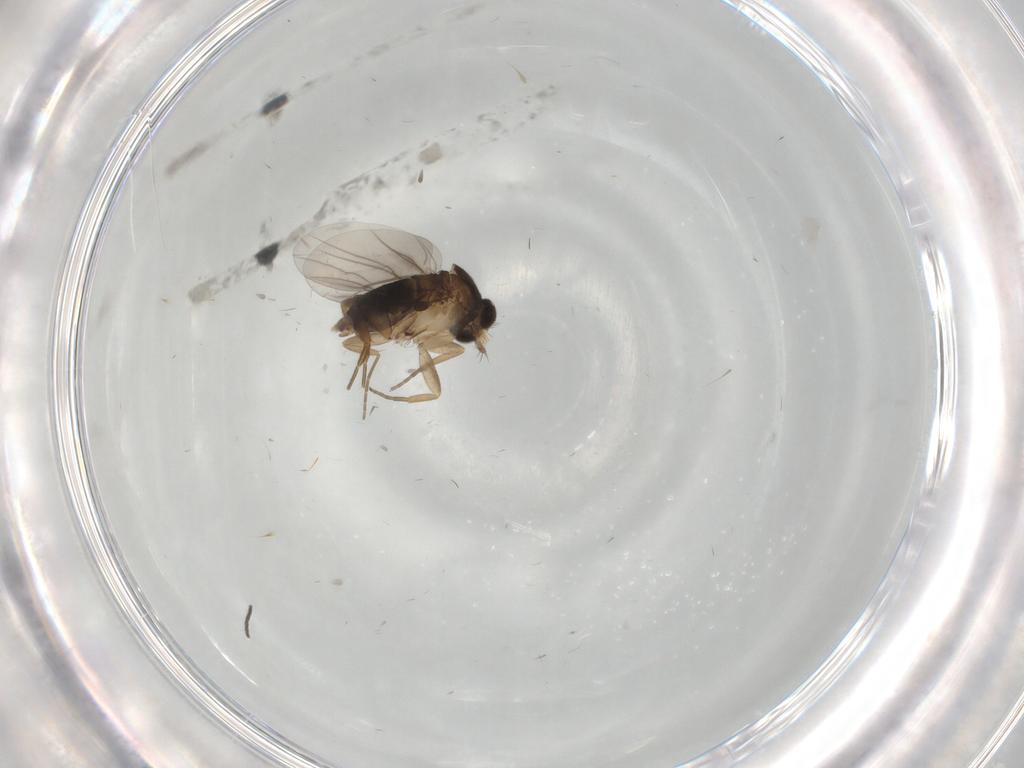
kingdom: Animalia
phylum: Arthropoda
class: Insecta
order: Diptera
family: Phoridae
